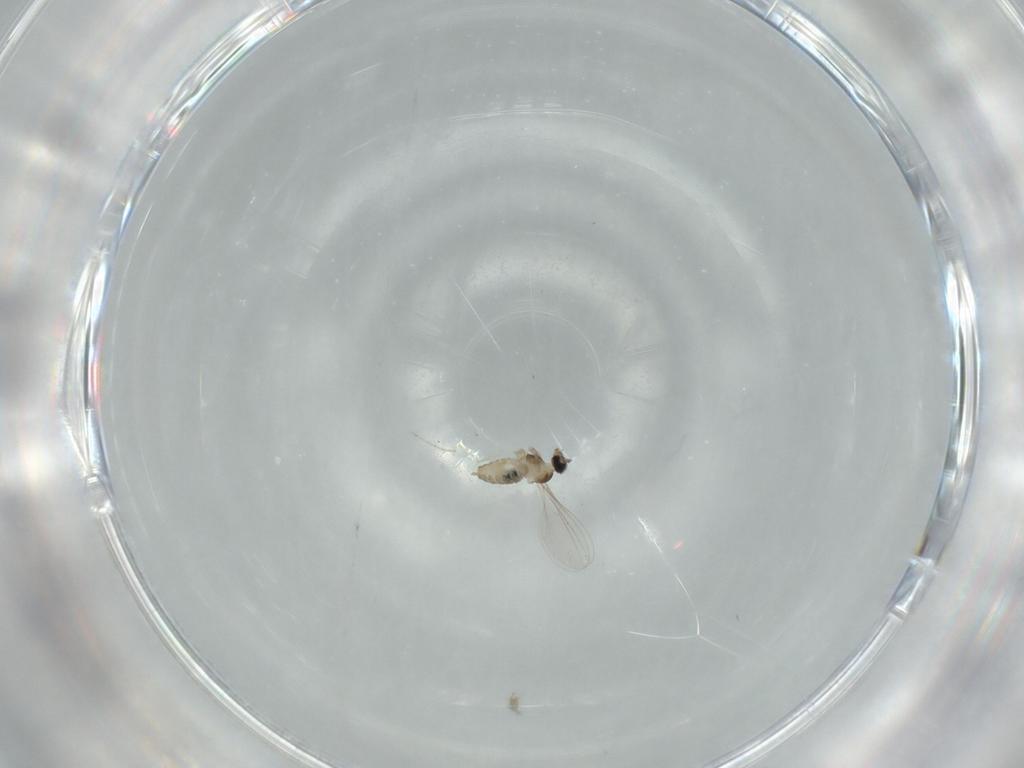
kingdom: Animalia
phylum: Arthropoda
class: Insecta
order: Diptera
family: Cecidomyiidae
